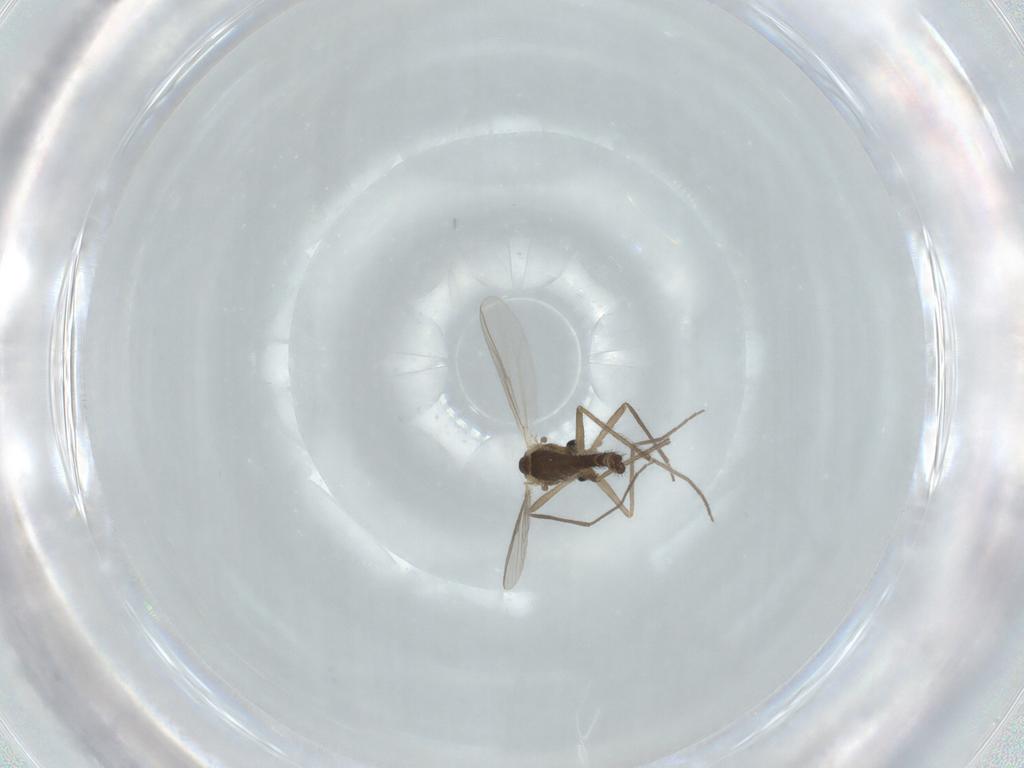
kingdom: Animalia
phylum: Arthropoda
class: Insecta
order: Diptera
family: Chironomidae
